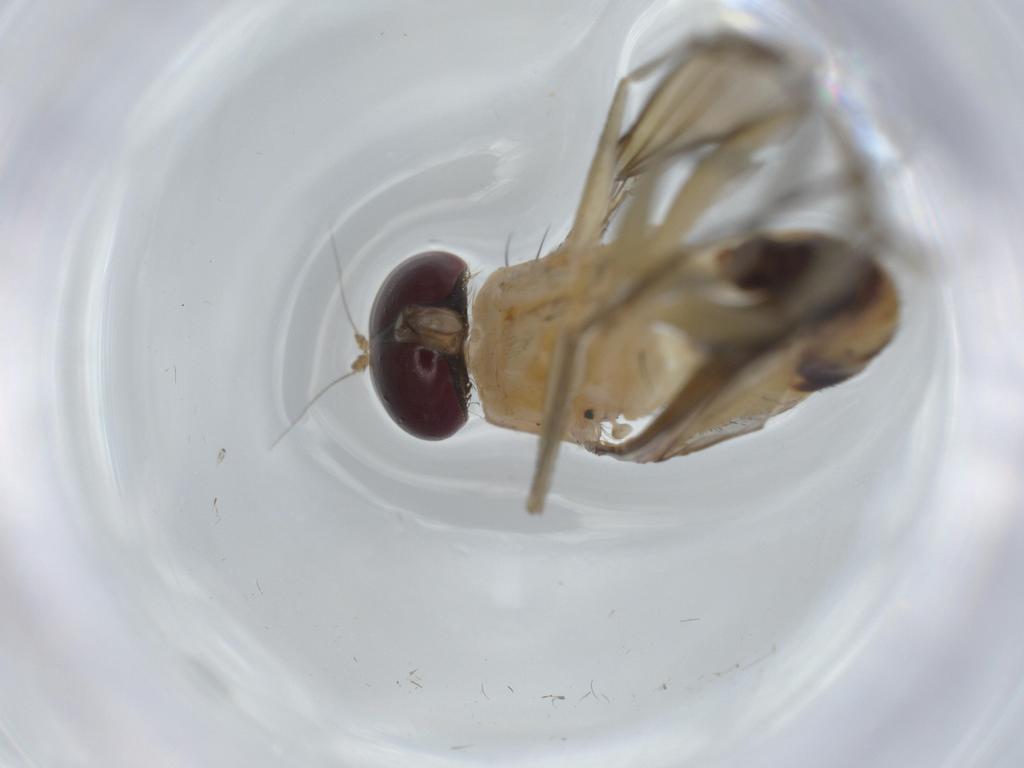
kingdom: Animalia
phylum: Arthropoda
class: Insecta
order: Diptera
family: Dolichopodidae
